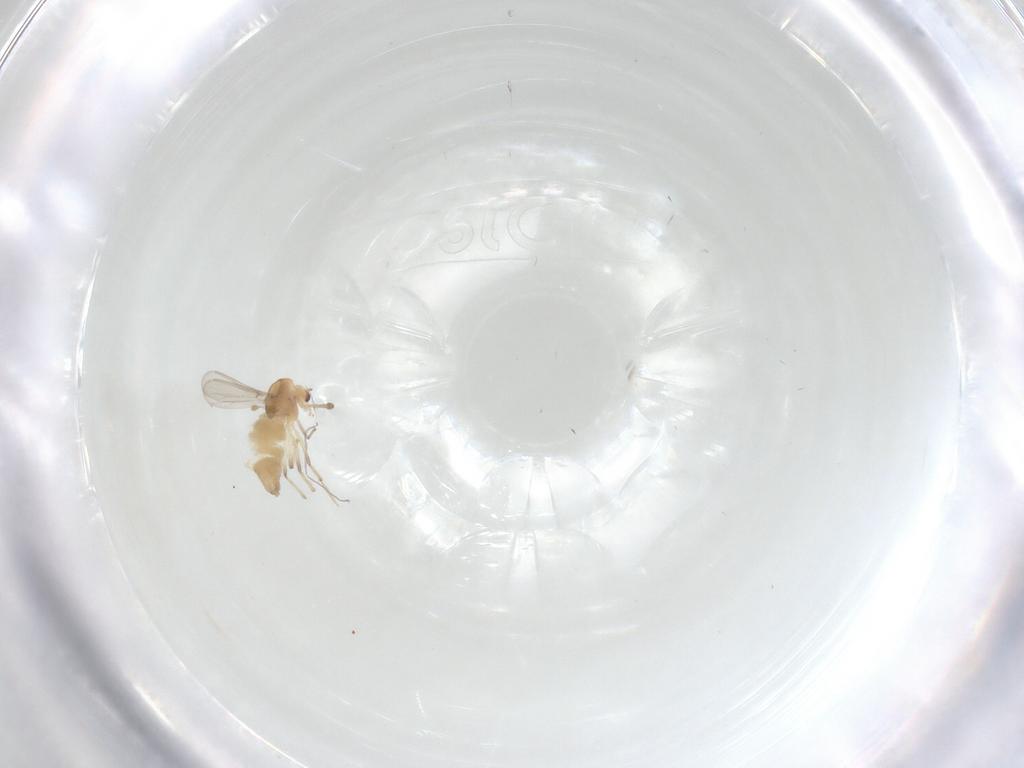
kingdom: Animalia
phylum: Arthropoda
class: Insecta
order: Diptera
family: Chironomidae
